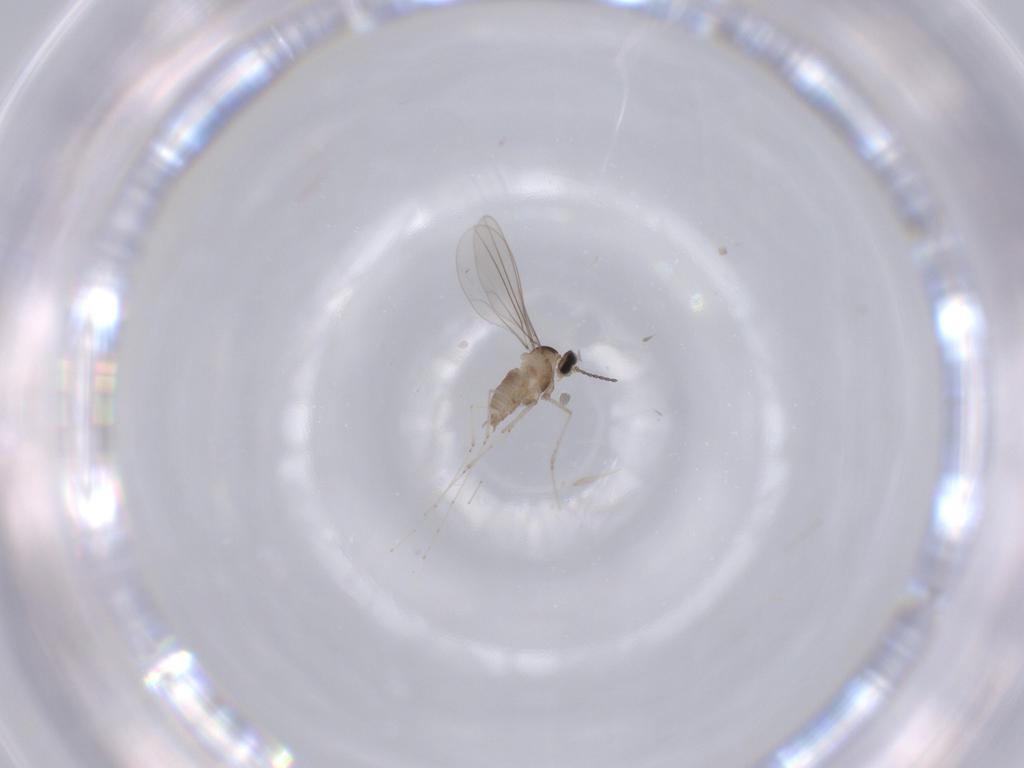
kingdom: Animalia
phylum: Arthropoda
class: Insecta
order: Diptera
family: Cecidomyiidae
